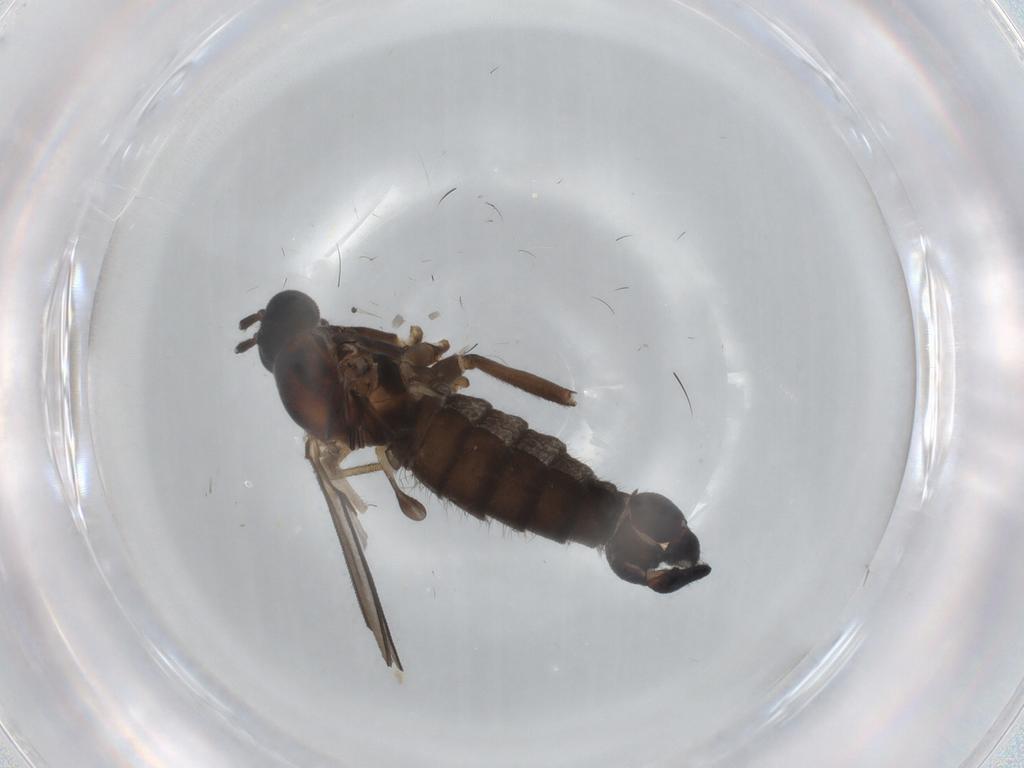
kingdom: Animalia
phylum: Arthropoda
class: Insecta
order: Diptera
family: Sciaridae
